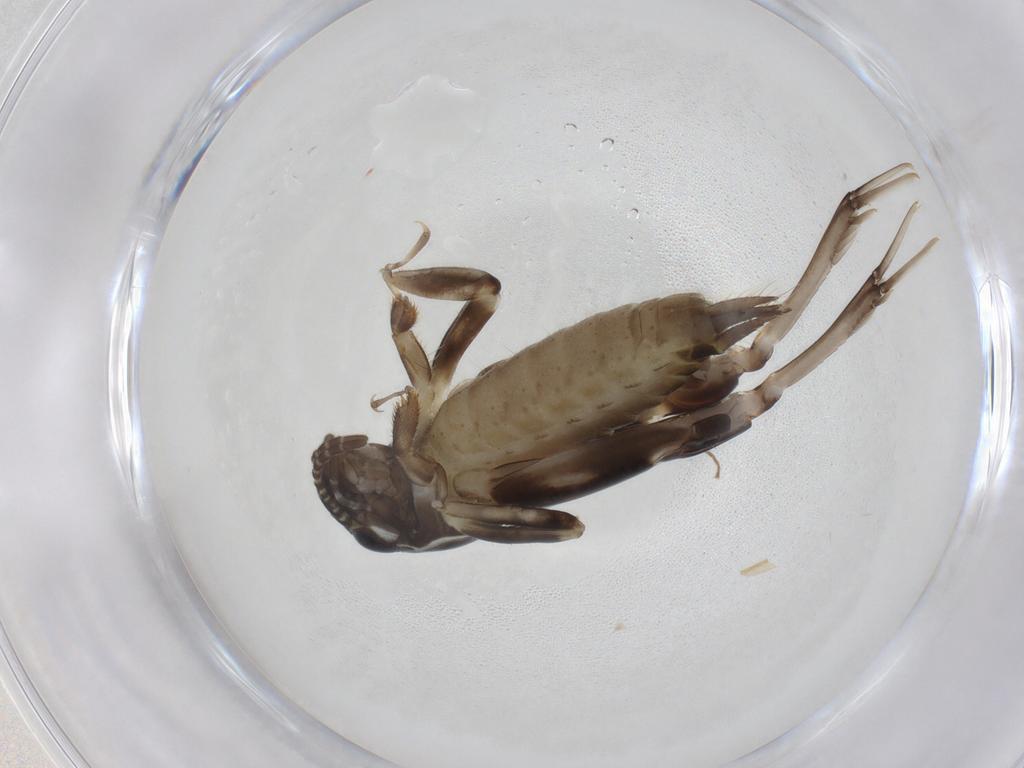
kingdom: Animalia
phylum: Arthropoda
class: Insecta
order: Orthoptera
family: Tridactylidae
